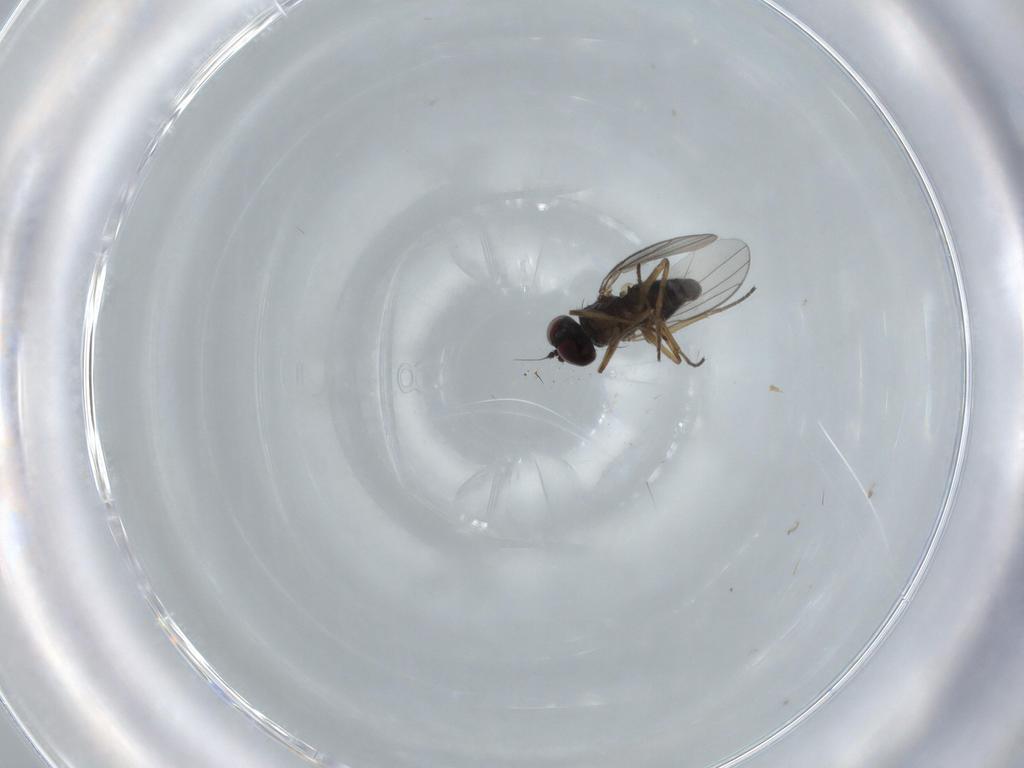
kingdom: Animalia
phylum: Arthropoda
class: Insecta
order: Diptera
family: Dolichopodidae
